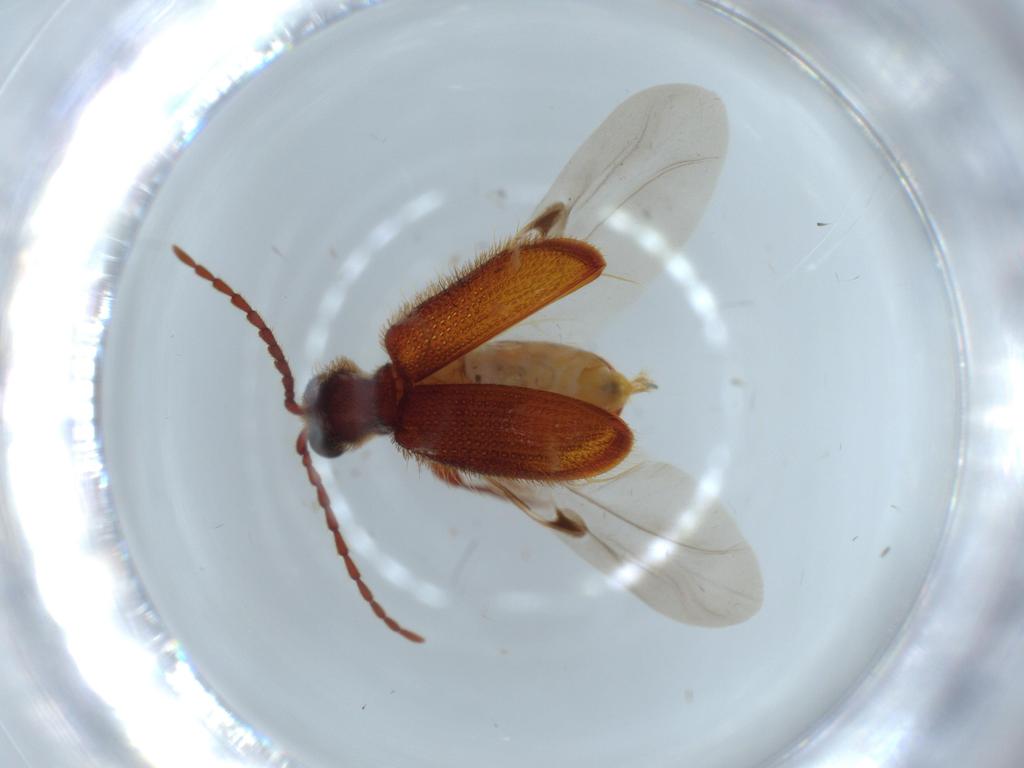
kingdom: Animalia
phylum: Arthropoda
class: Insecta
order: Coleoptera
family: Ptinidae
